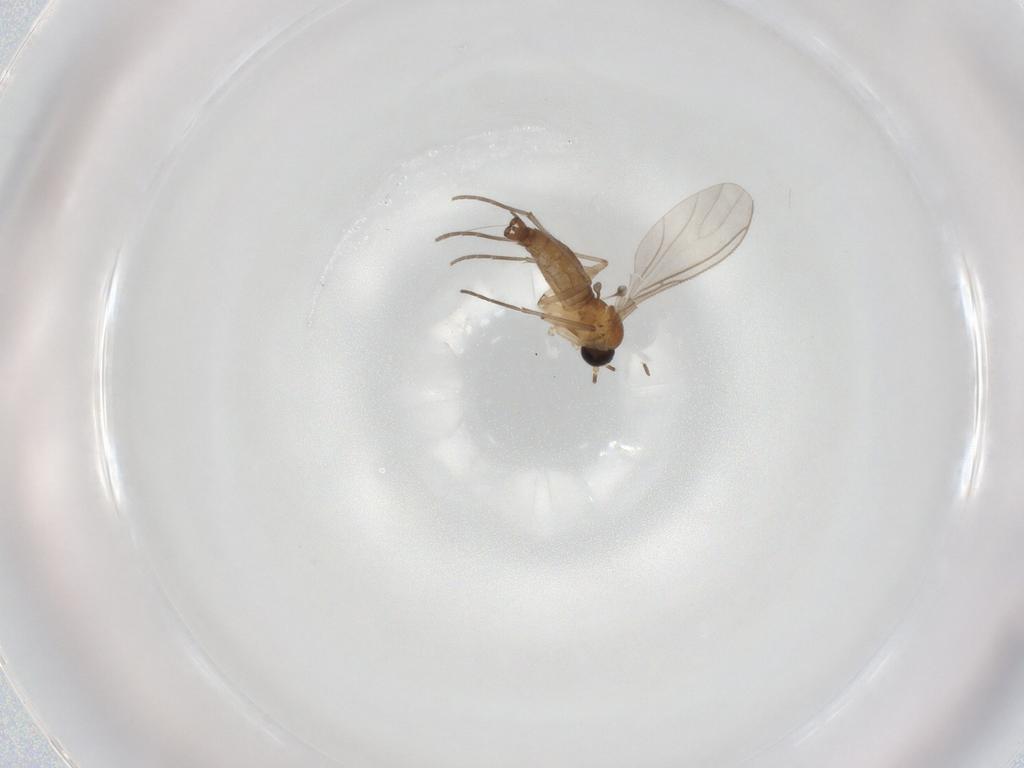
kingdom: Animalia
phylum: Arthropoda
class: Insecta
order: Diptera
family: Sciaridae
